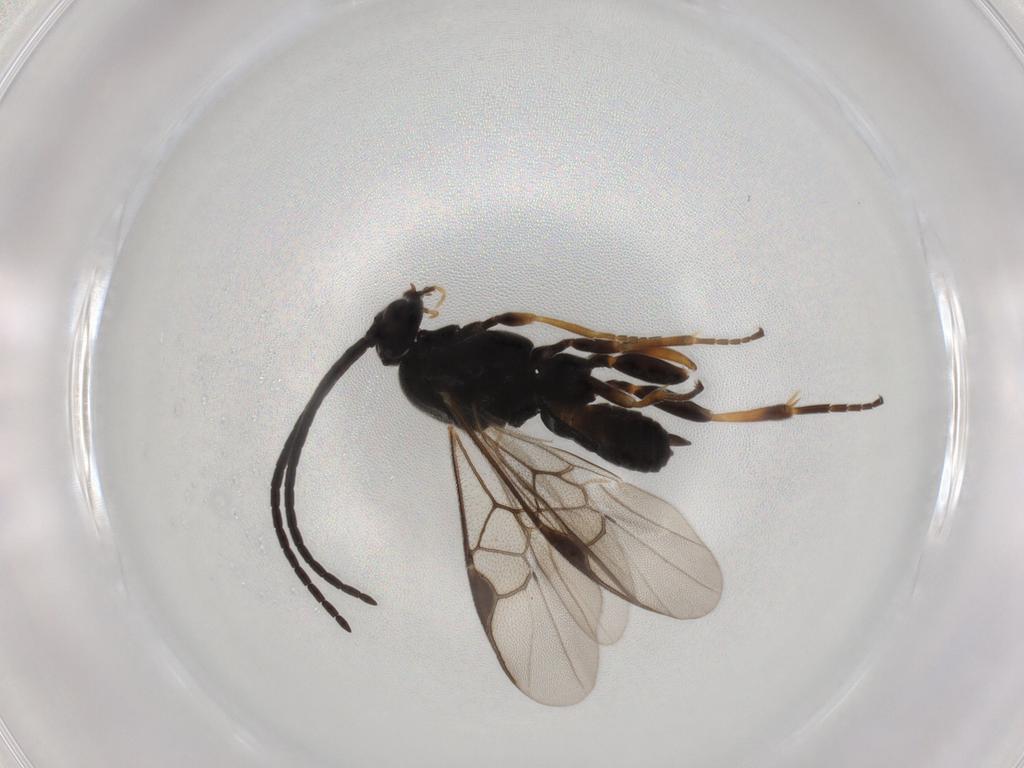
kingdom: Animalia
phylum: Arthropoda
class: Insecta
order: Hymenoptera
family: Braconidae
